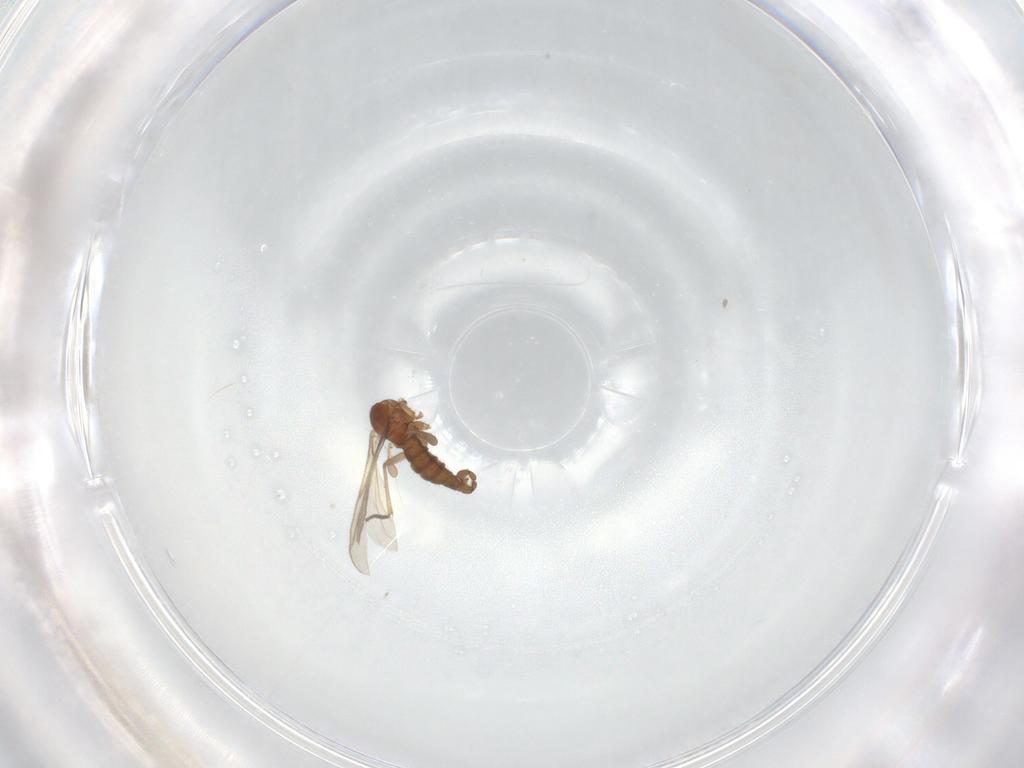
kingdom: Animalia
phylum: Arthropoda
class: Insecta
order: Diptera
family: Sciaridae
